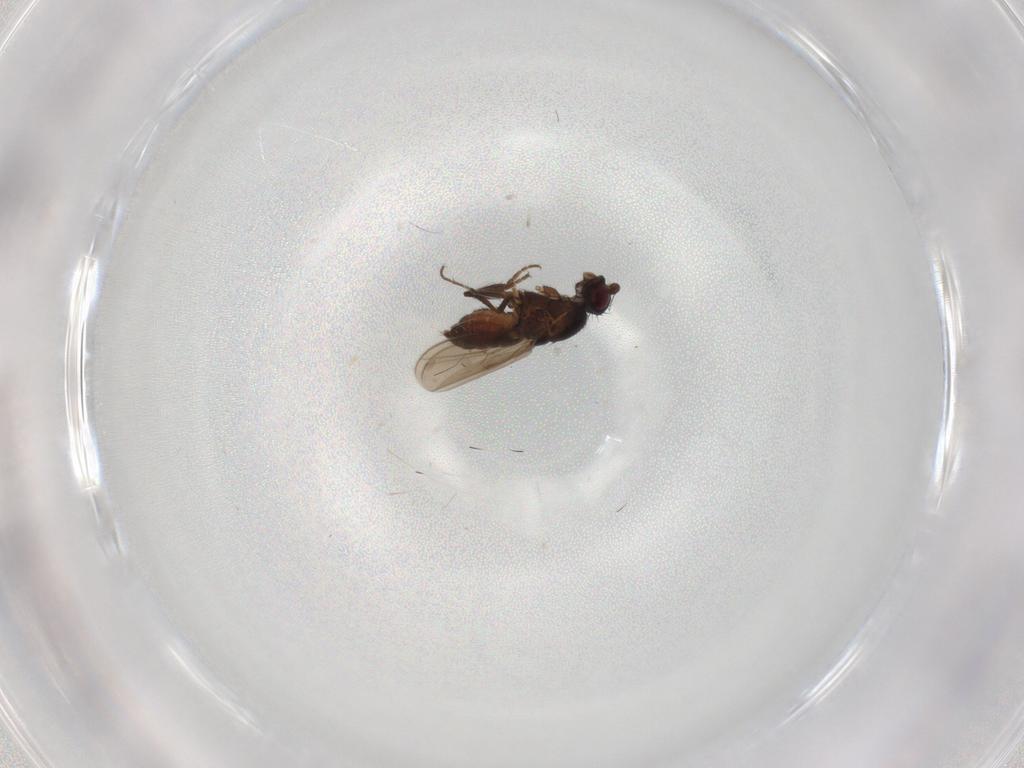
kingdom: Animalia
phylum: Arthropoda
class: Insecta
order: Diptera
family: Sphaeroceridae
